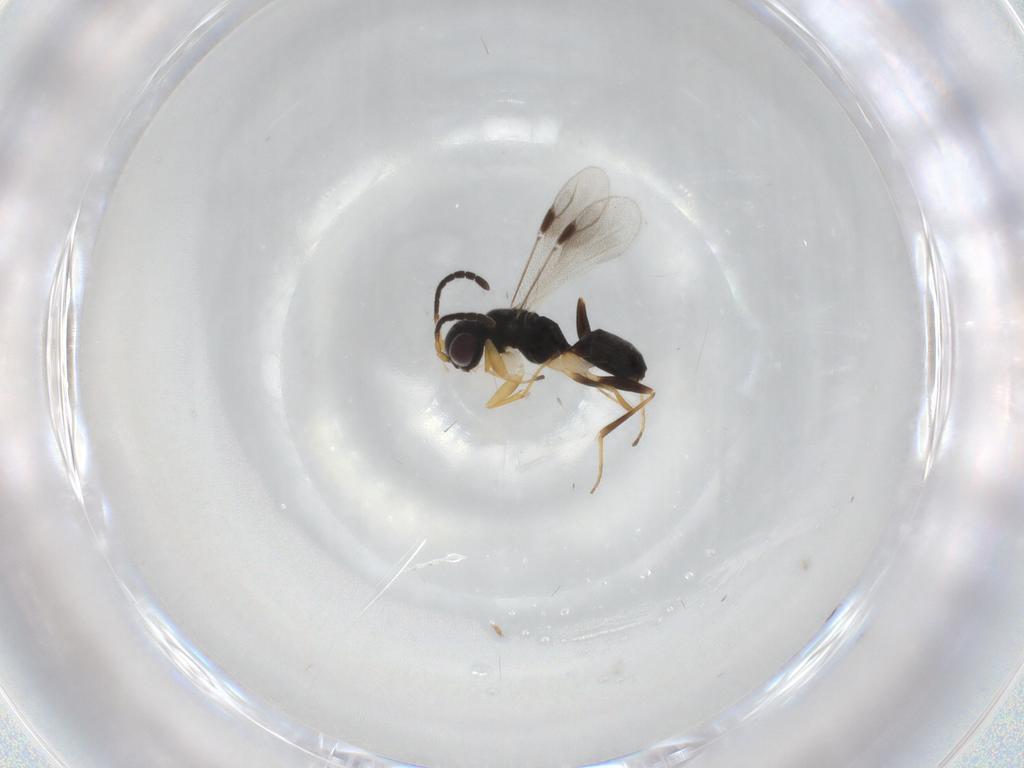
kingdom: Animalia
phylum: Arthropoda
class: Insecta
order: Hymenoptera
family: Dryinidae
